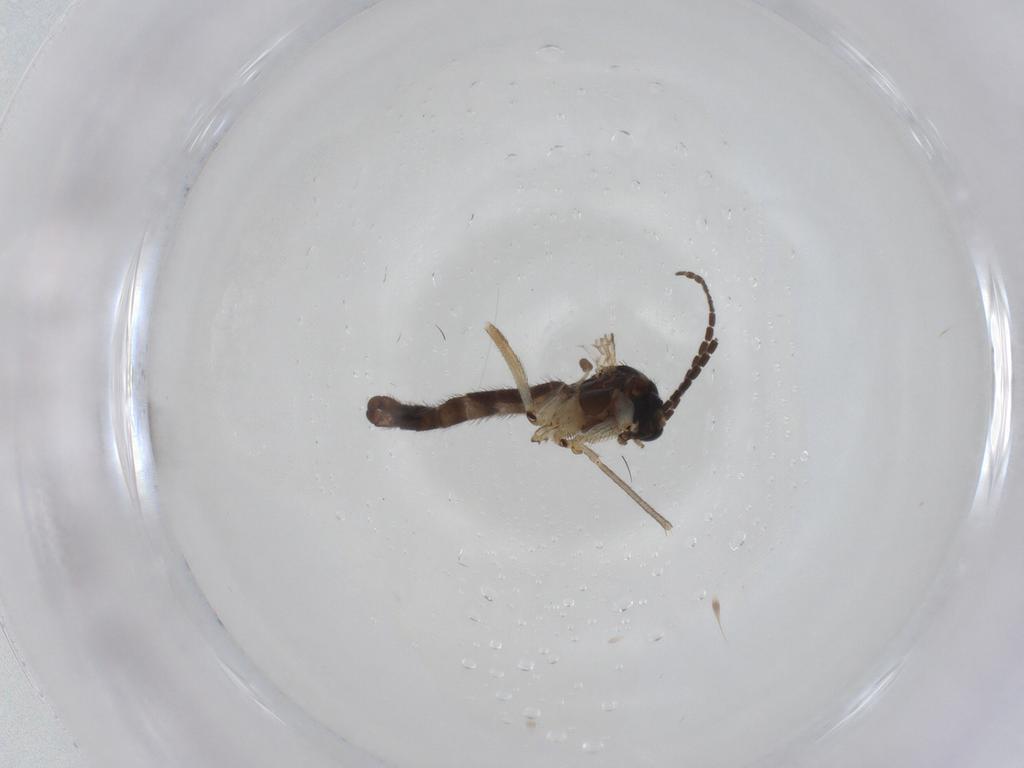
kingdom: Animalia
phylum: Arthropoda
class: Insecta
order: Diptera
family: Sciaridae
